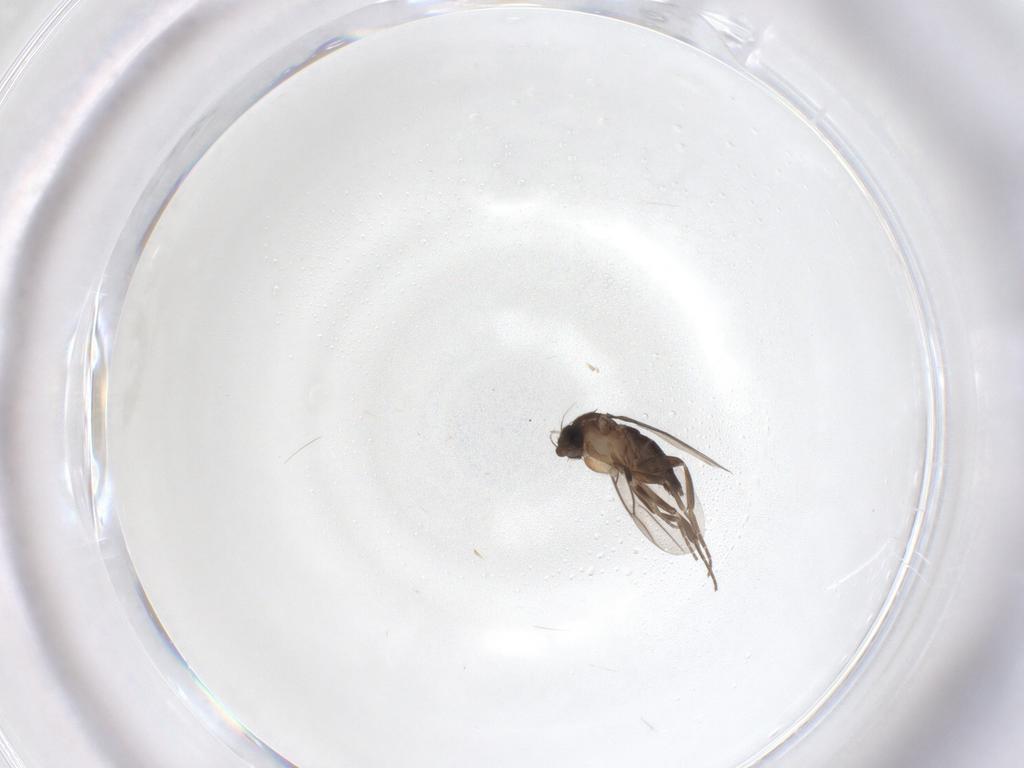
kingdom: Animalia
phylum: Arthropoda
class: Insecta
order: Diptera
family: Phoridae
